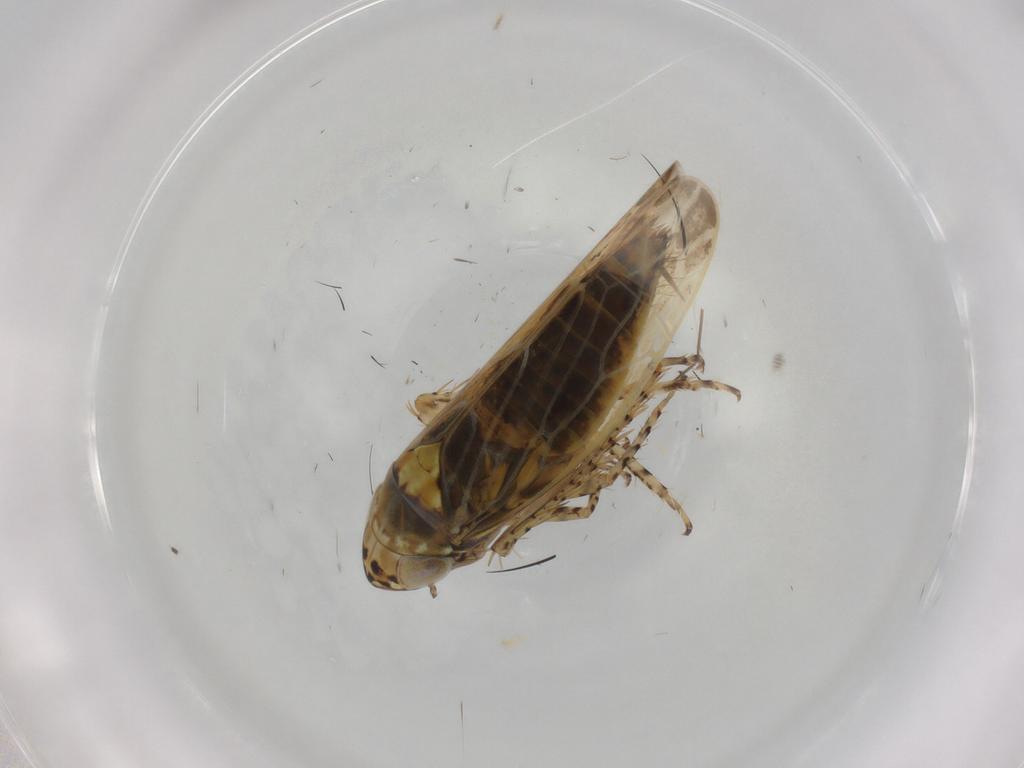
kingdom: Animalia
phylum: Arthropoda
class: Insecta
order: Hemiptera
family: Cicadellidae
